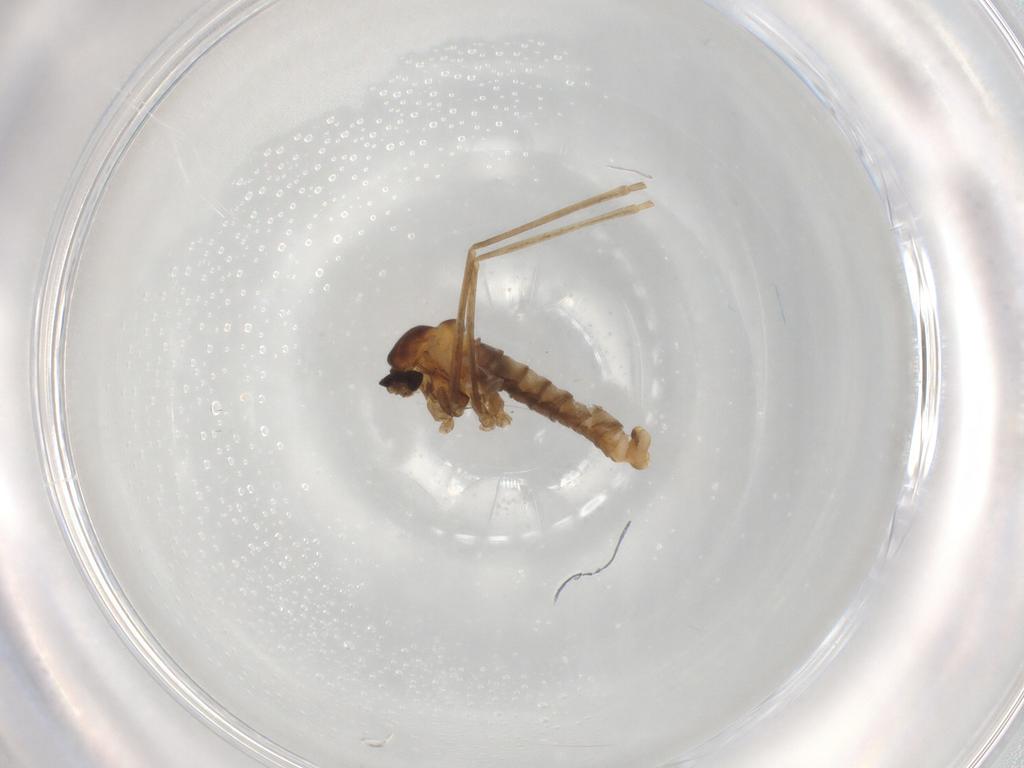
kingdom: Animalia
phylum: Arthropoda
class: Insecta
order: Diptera
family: Cecidomyiidae
